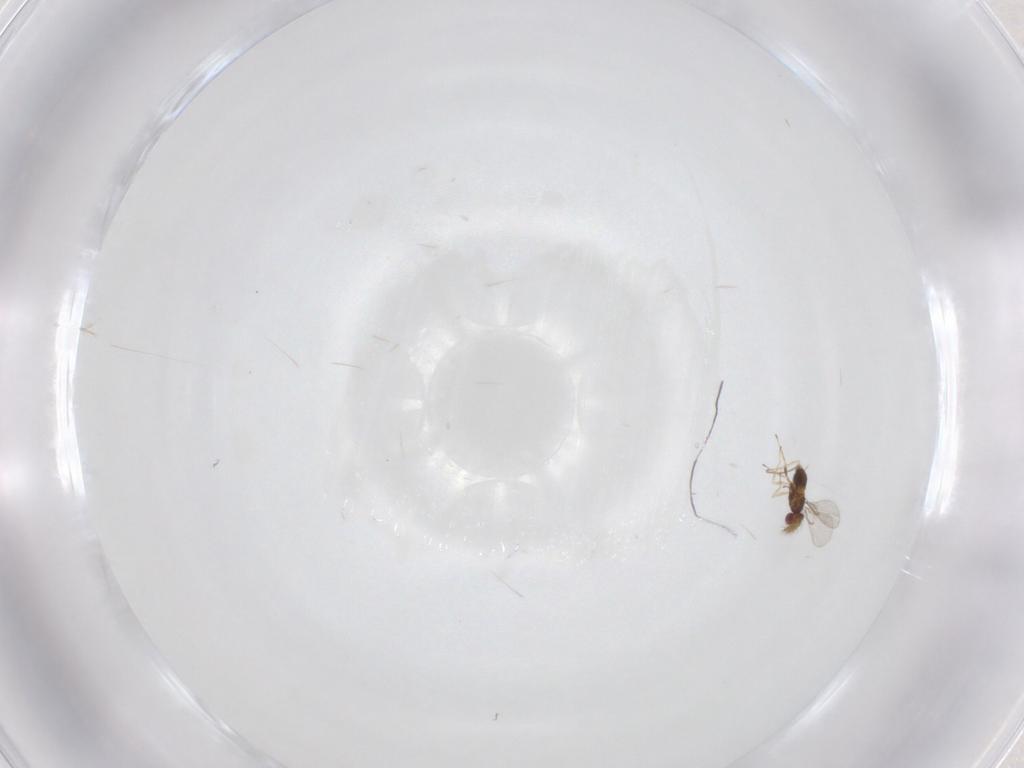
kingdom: Animalia
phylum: Arthropoda
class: Insecta
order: Hymenoptera
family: Trichogrammatidae
